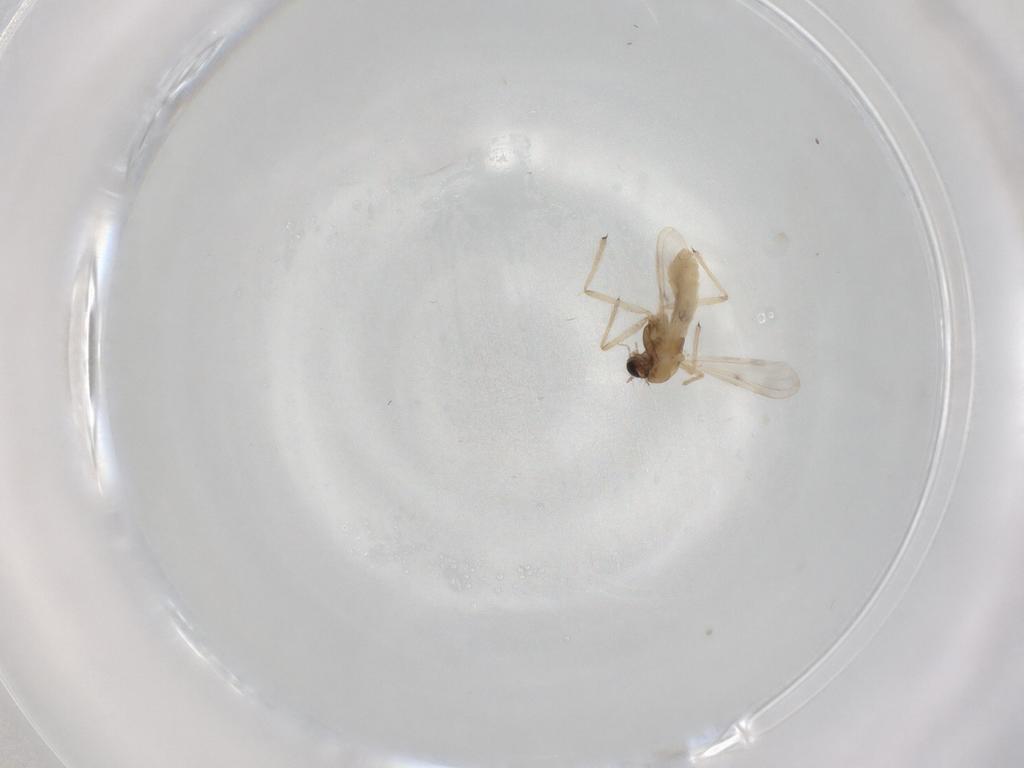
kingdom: Animalia
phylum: Arthropoda
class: Insecta
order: Diptera
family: Chironomidae
